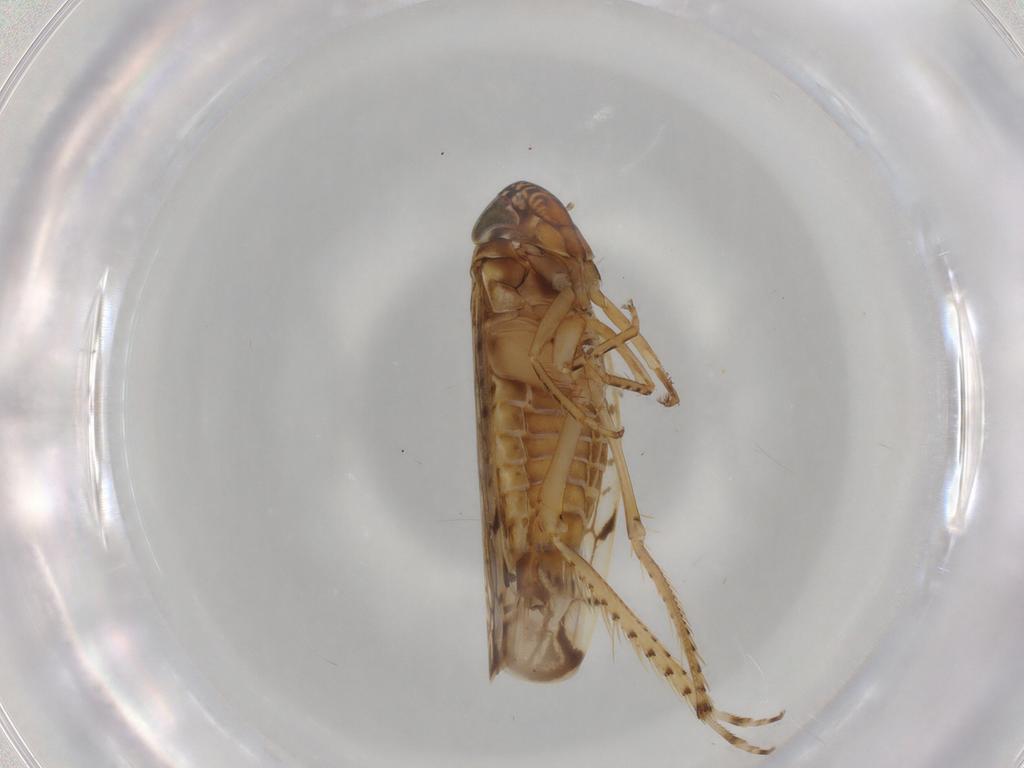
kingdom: Animalia
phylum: Arthropoda
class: Insecta
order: Hemiptera
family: Cicadellidae
